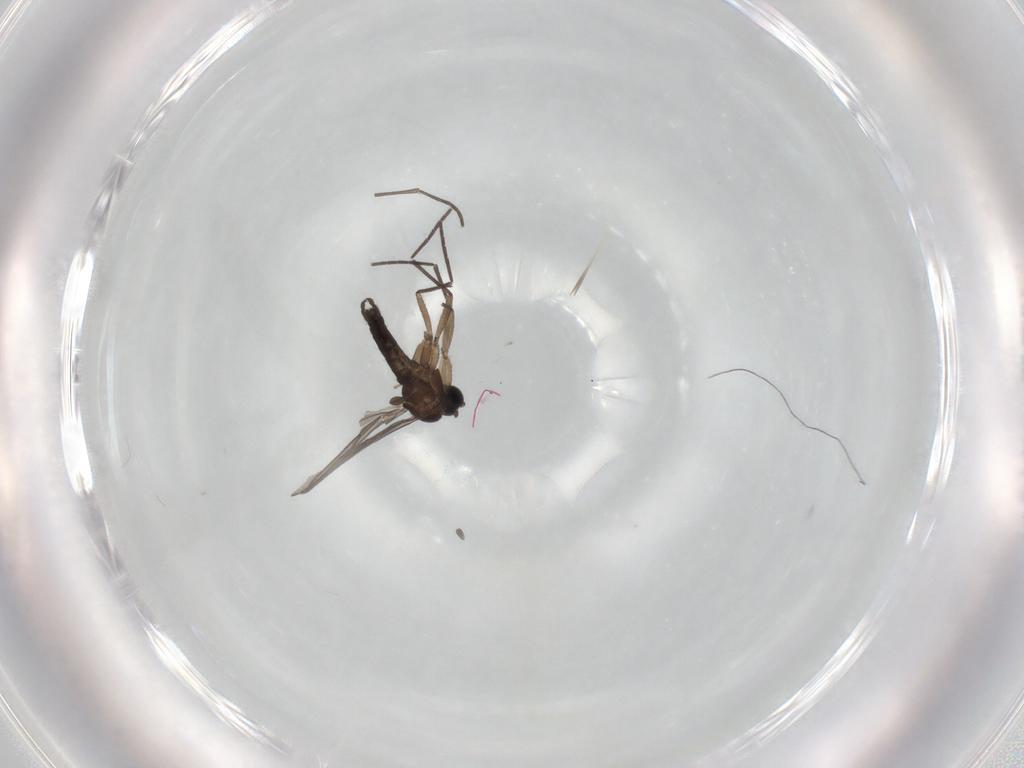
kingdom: Animalia
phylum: Arthropoda
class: Insecta
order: Diptera
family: Sciaridae
